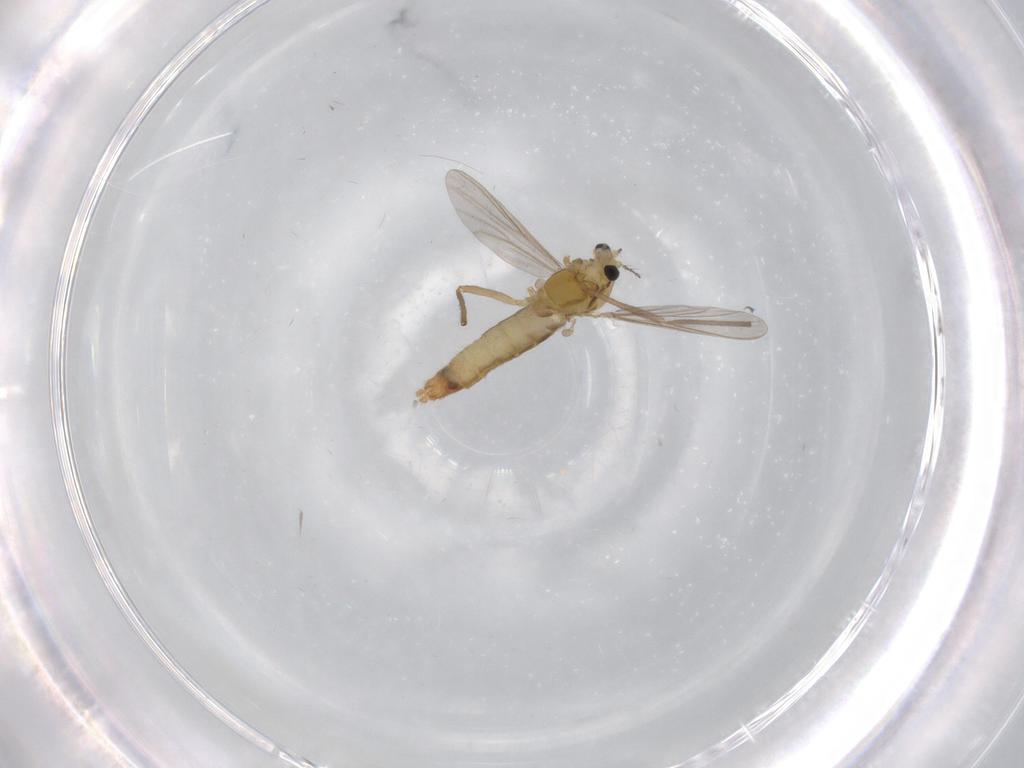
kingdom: Animalia
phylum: Arthropoda
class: Insecta
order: Diptera
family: Chironomidae
